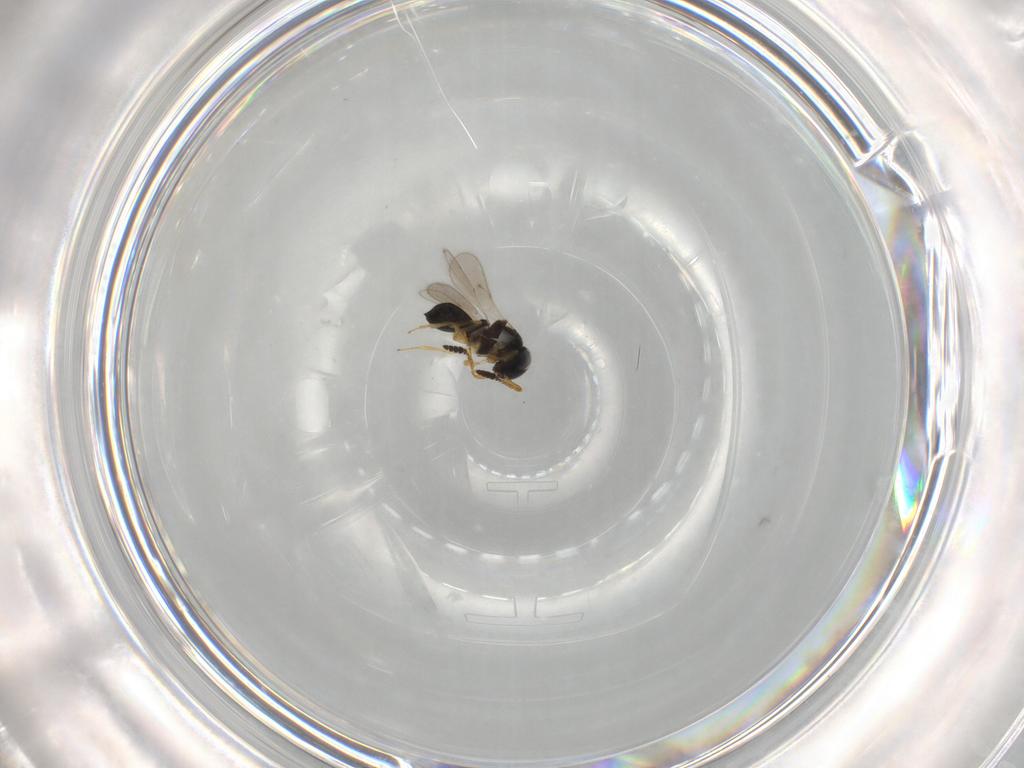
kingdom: Animalia
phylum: Arthropoda
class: Insecta
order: Hymenoptera
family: Scelionidae
